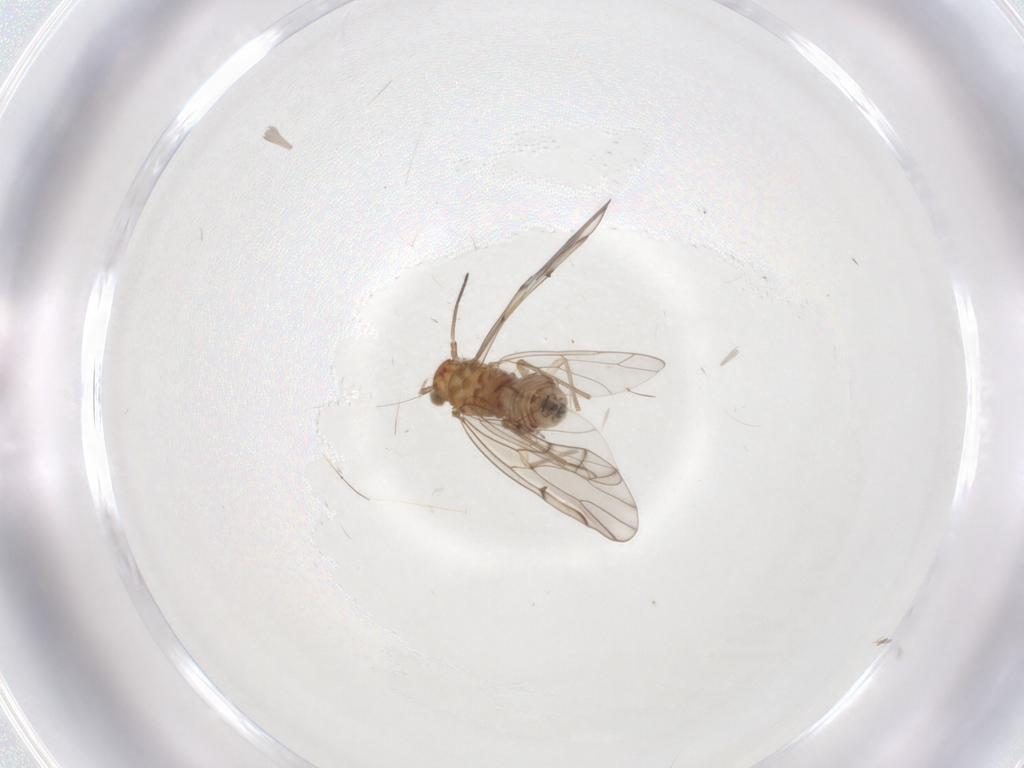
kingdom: Animalia
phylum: Arthropoda
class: Insecta
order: Psocodea
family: Ectopsocidae
